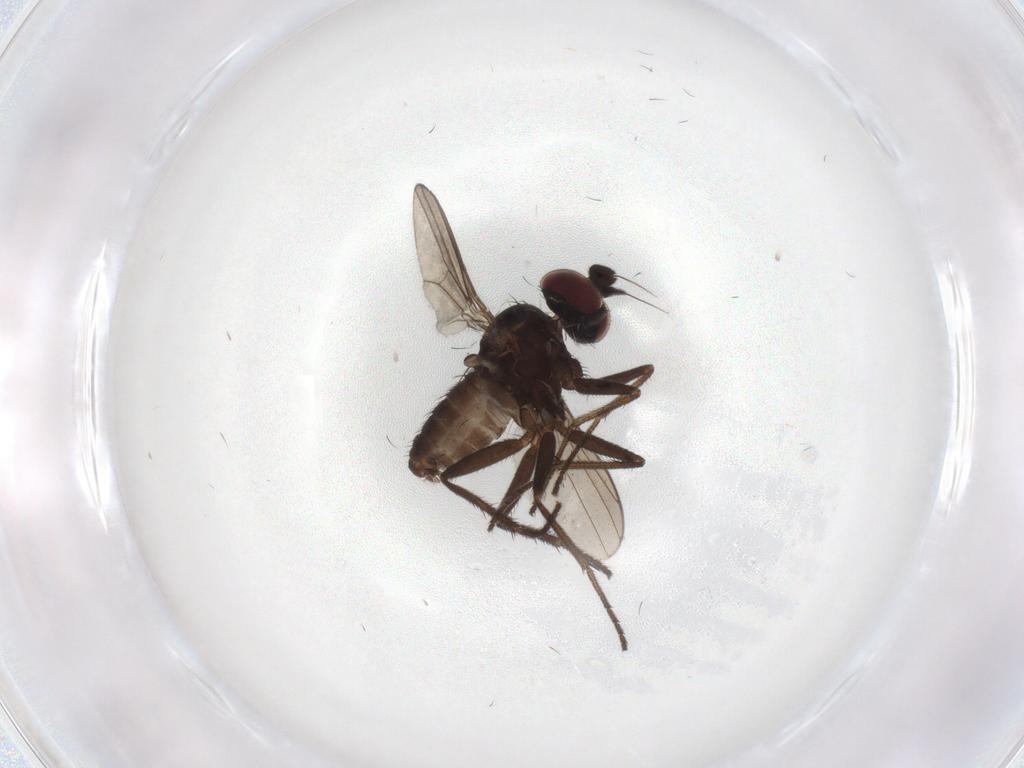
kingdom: Animalia
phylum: Arthropoda
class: Insecta
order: Diptera
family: Dolichopodidae
